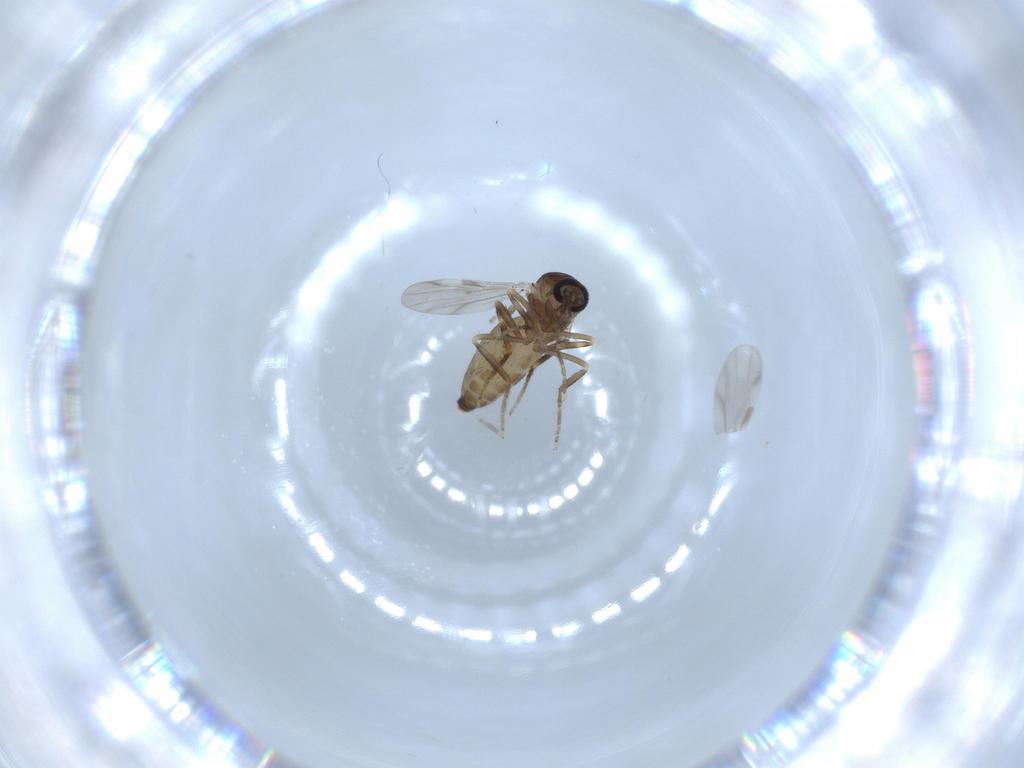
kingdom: Animalia
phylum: Arthropoda
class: Insecta
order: Diptera
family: Ceratopogonidae
